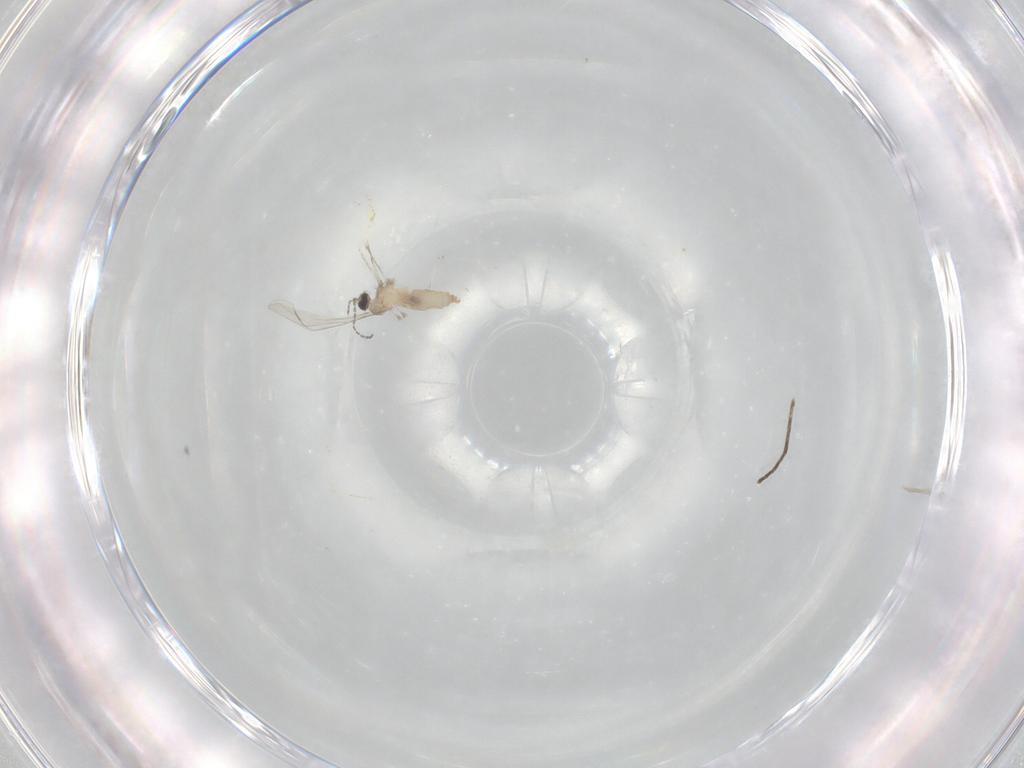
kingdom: Animalia
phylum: Arthropoda
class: Insecta
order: Diptera
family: Cecidomyiidae
